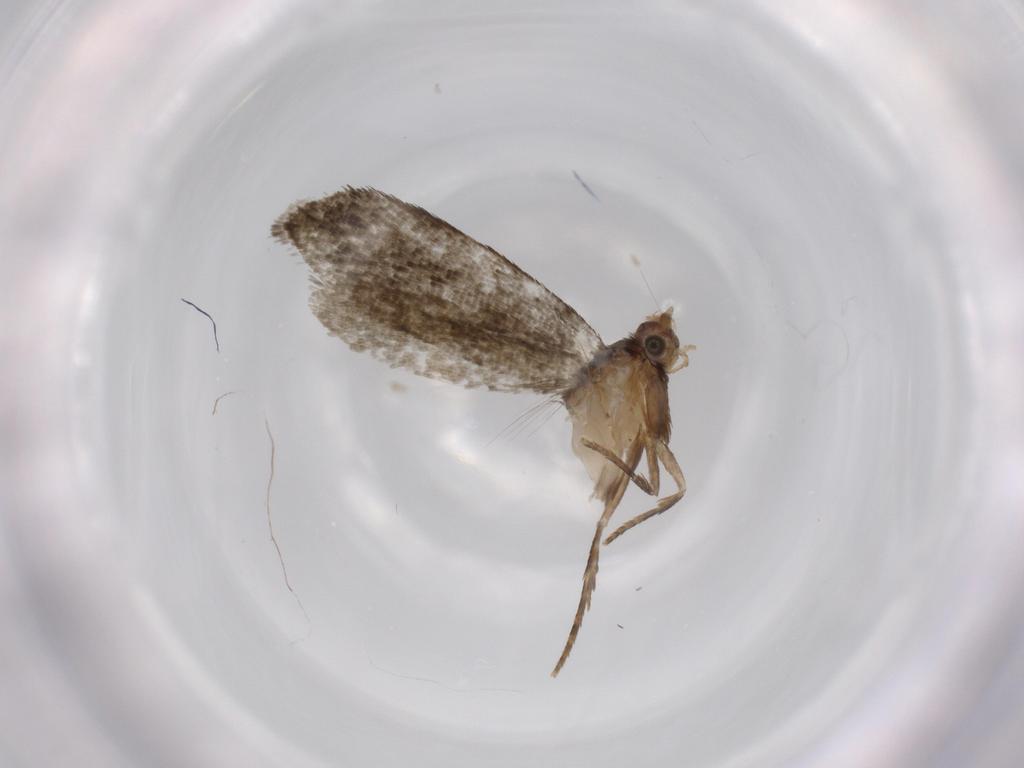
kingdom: Animalia
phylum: Arthropoda
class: Insecta
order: Lepidoptera
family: Tineidae
